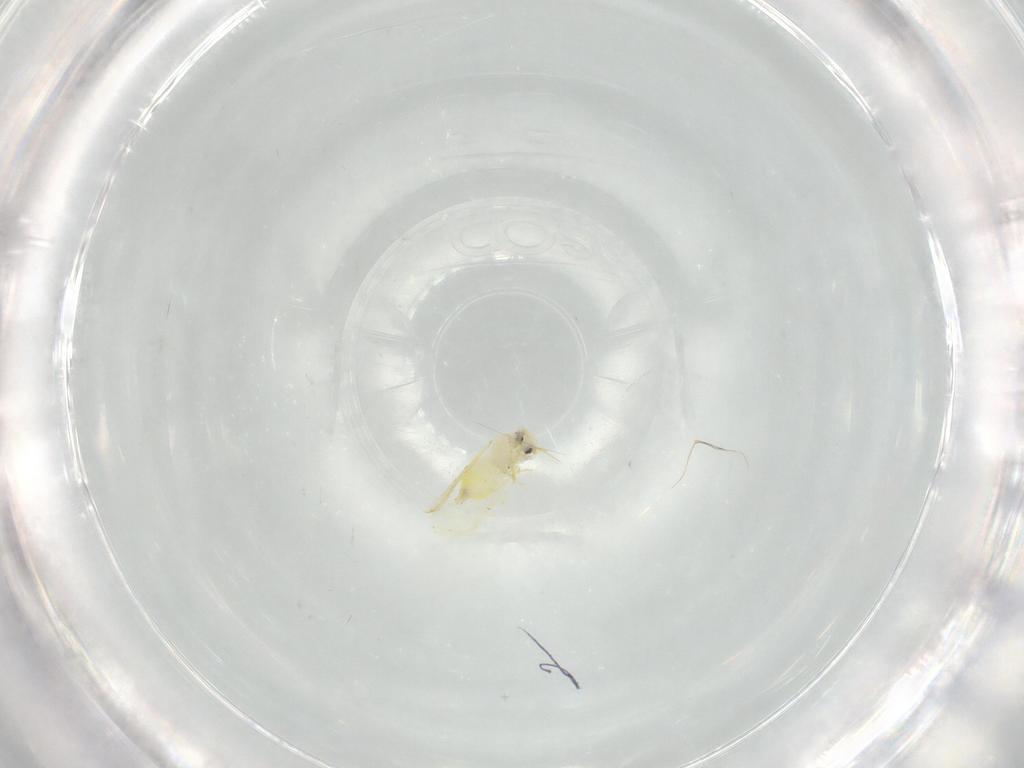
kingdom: Animalia
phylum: Arthropoda
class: Insecta
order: Hemiptera
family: Aleyrodidae
